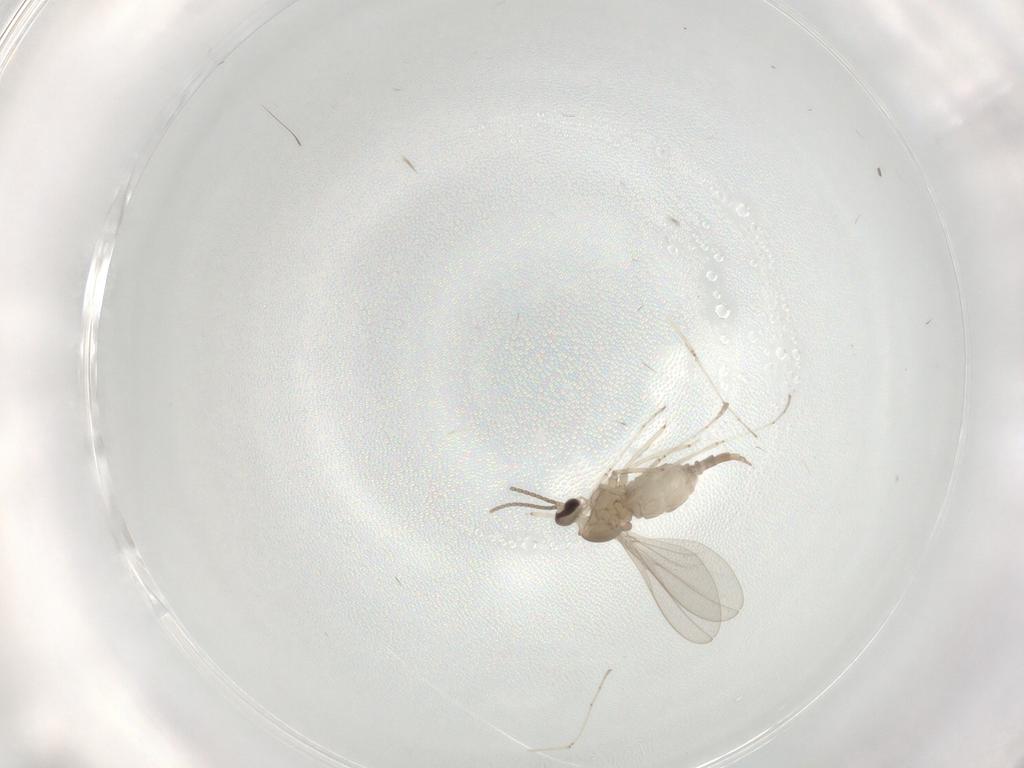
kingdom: Animalia
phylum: Arthropoda
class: Insecta
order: Diptera
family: Cecidomyiidae
